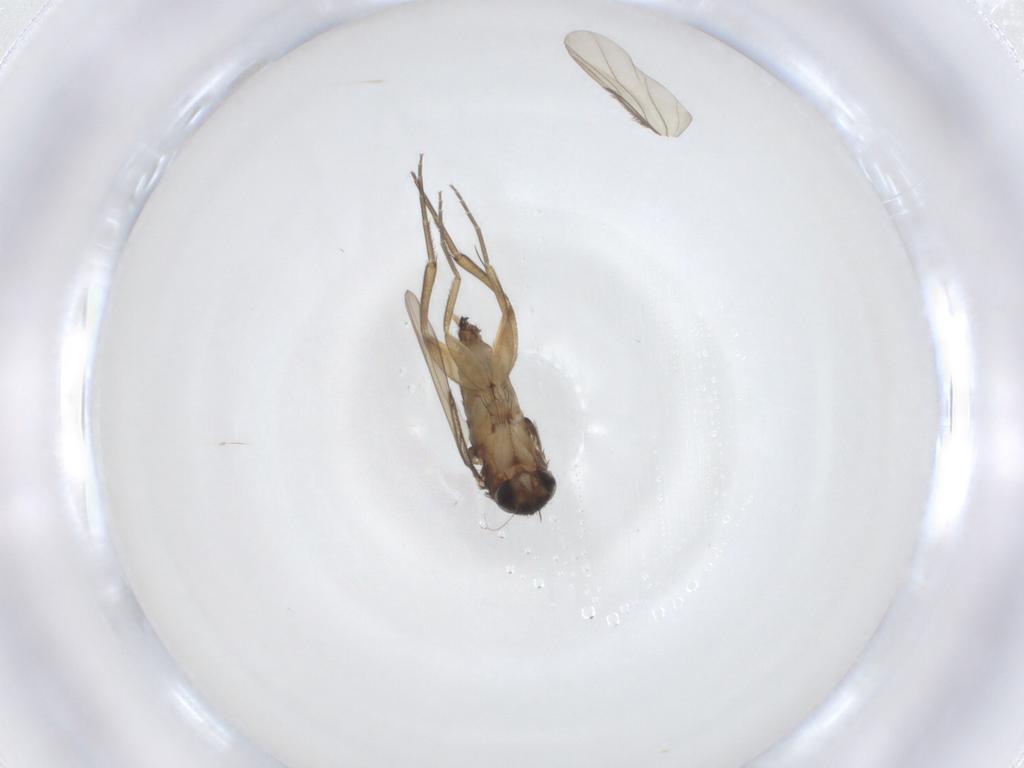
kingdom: Animalia
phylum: Arthropoda
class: Insecta
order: Diptera
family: Phoridae
